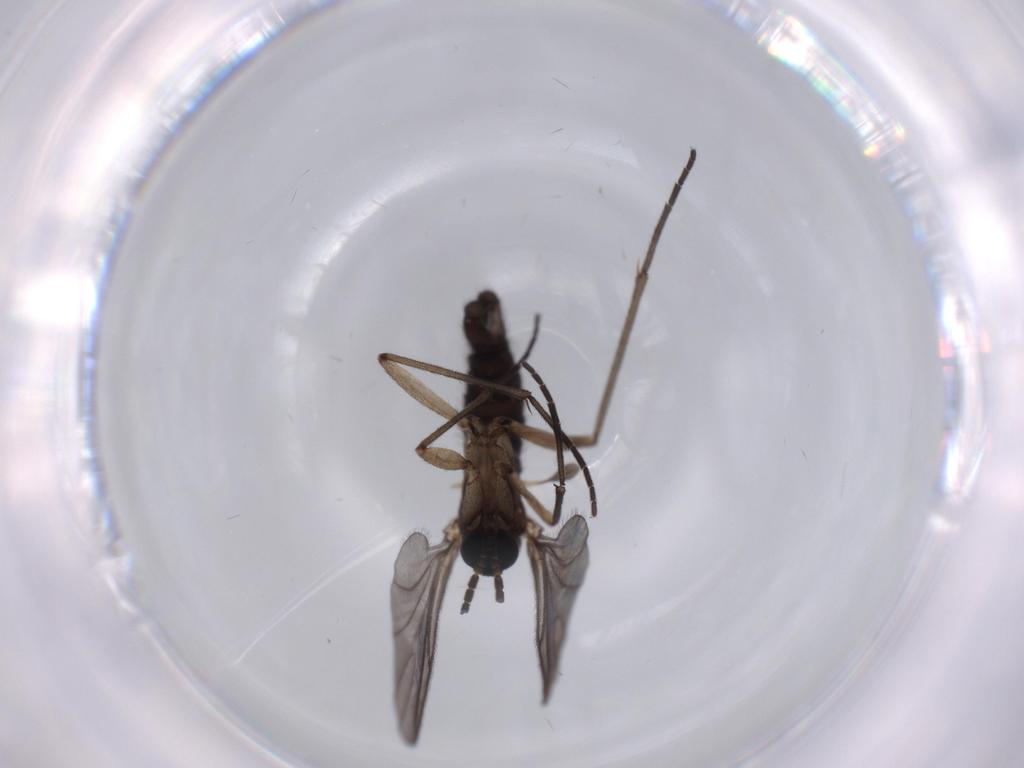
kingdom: Animalia
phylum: Arthropoda
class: Insecta
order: Diptera
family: Sciaridae
